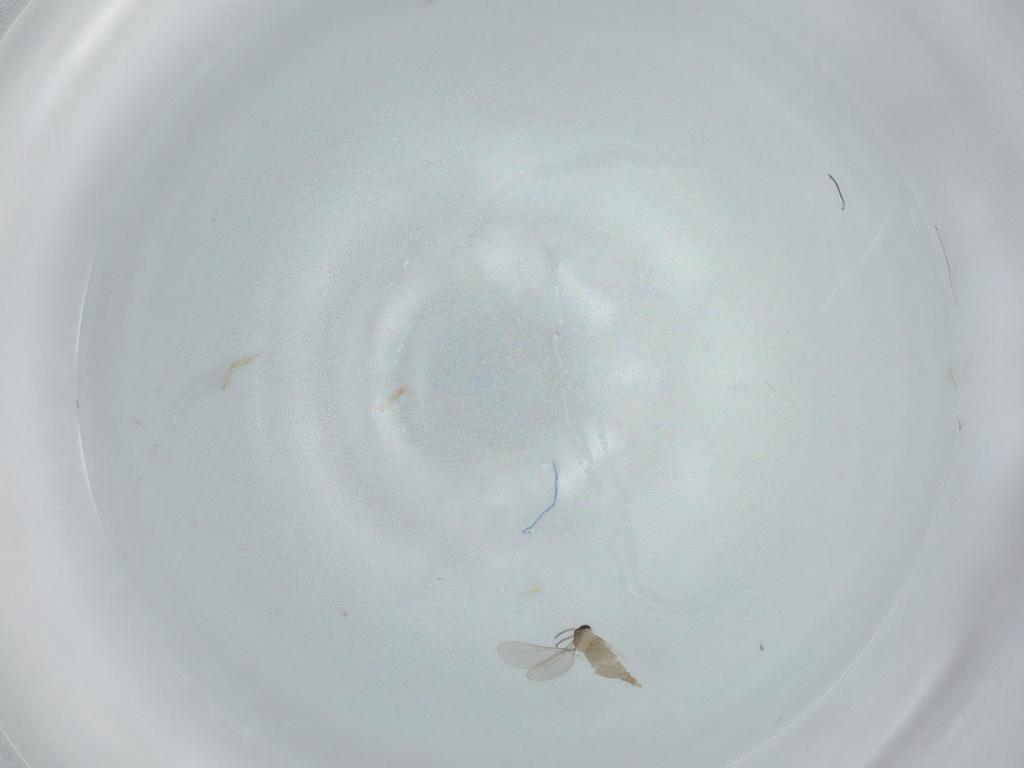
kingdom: Animalia
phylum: Arthropoda
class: Insecta
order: Diptera
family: Cecidomyiidae
